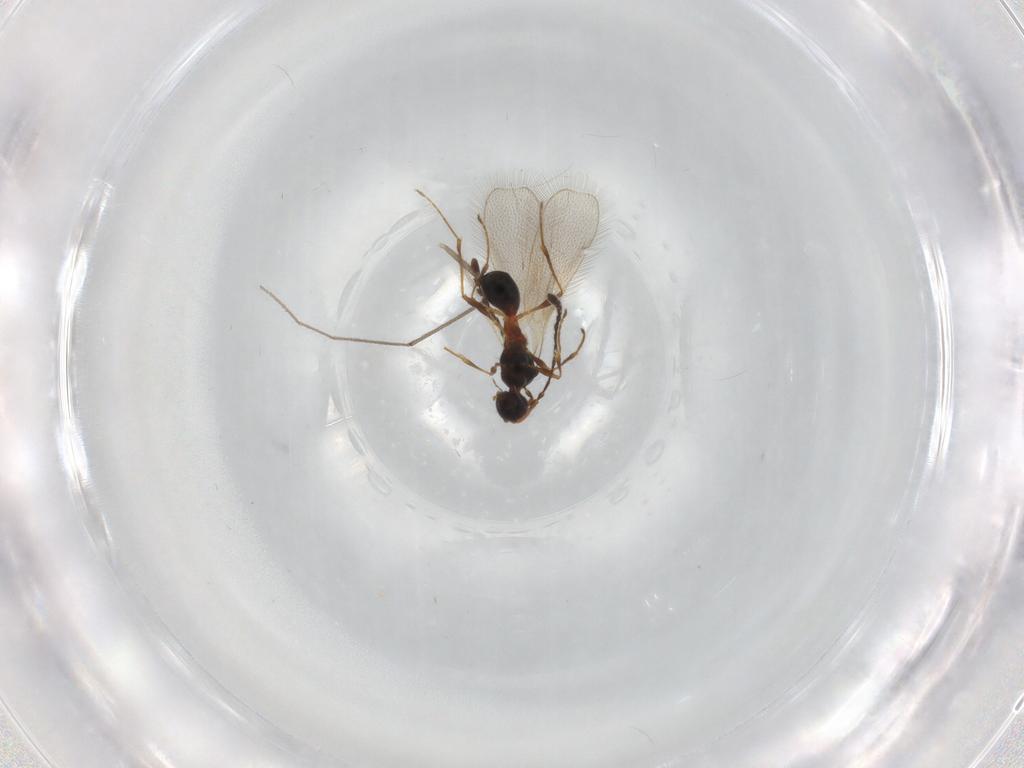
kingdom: Animalia
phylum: Arthropoda
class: Insecta
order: Hymenoptera
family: Diapriidae
